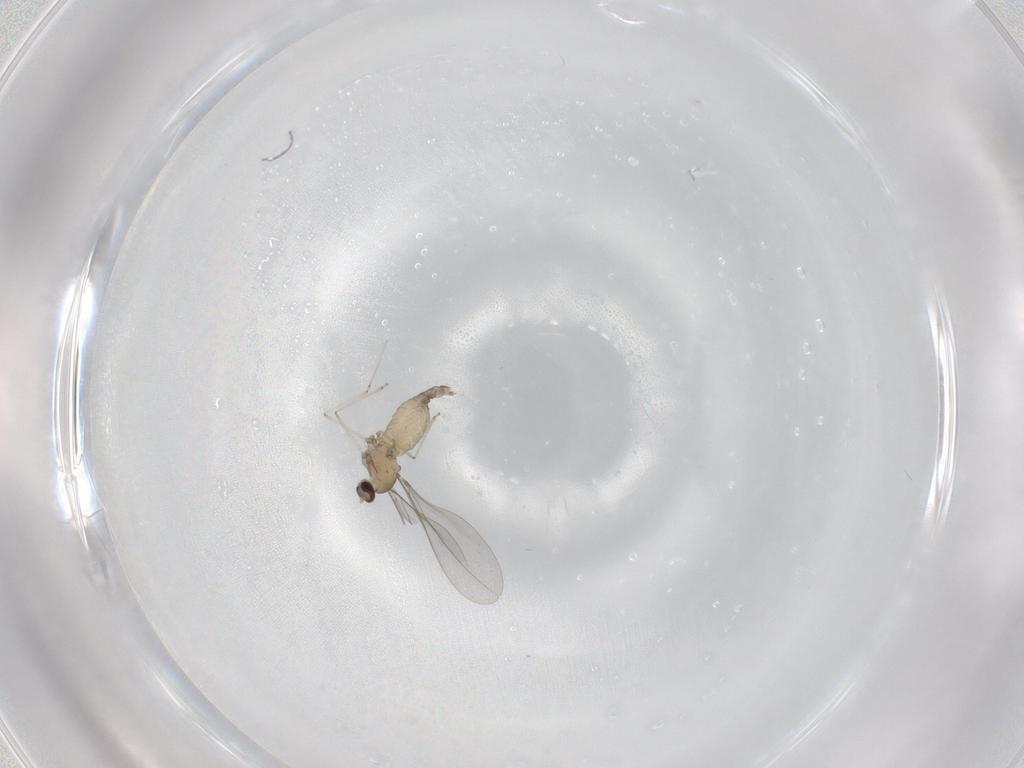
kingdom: Animalia
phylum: Arthropoda
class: Insecta
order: Diptera
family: Cecidomyiidae
